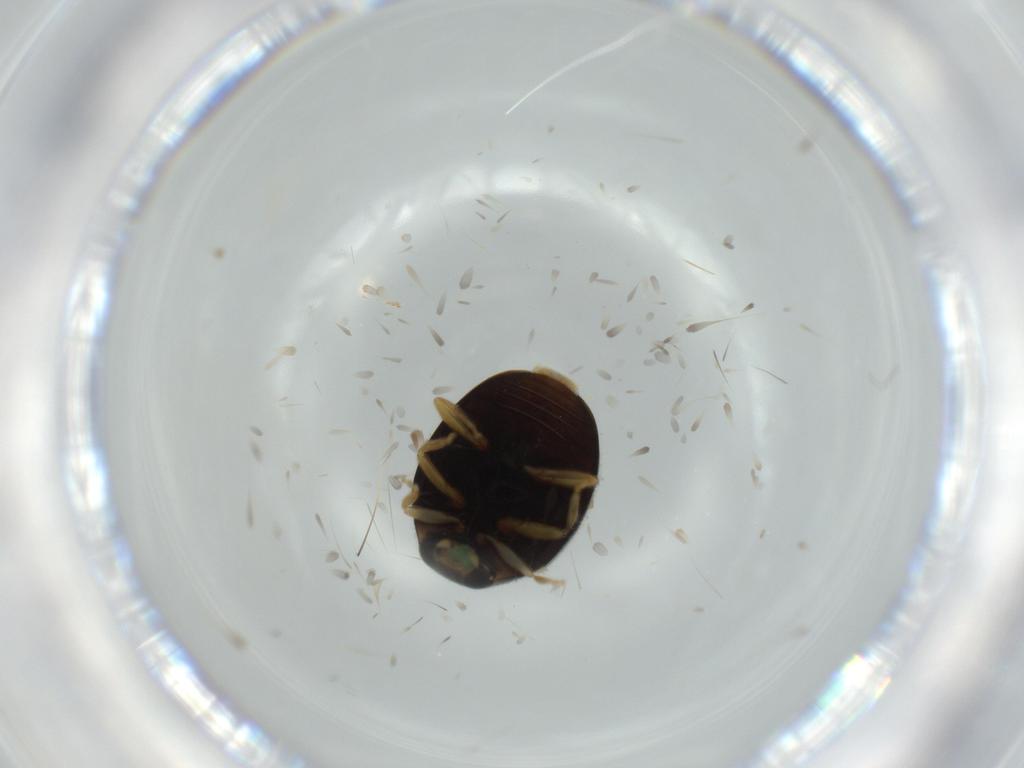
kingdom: Animalia
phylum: Arthropoda
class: Insecta
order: Coleoptera
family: Coccinellidae
